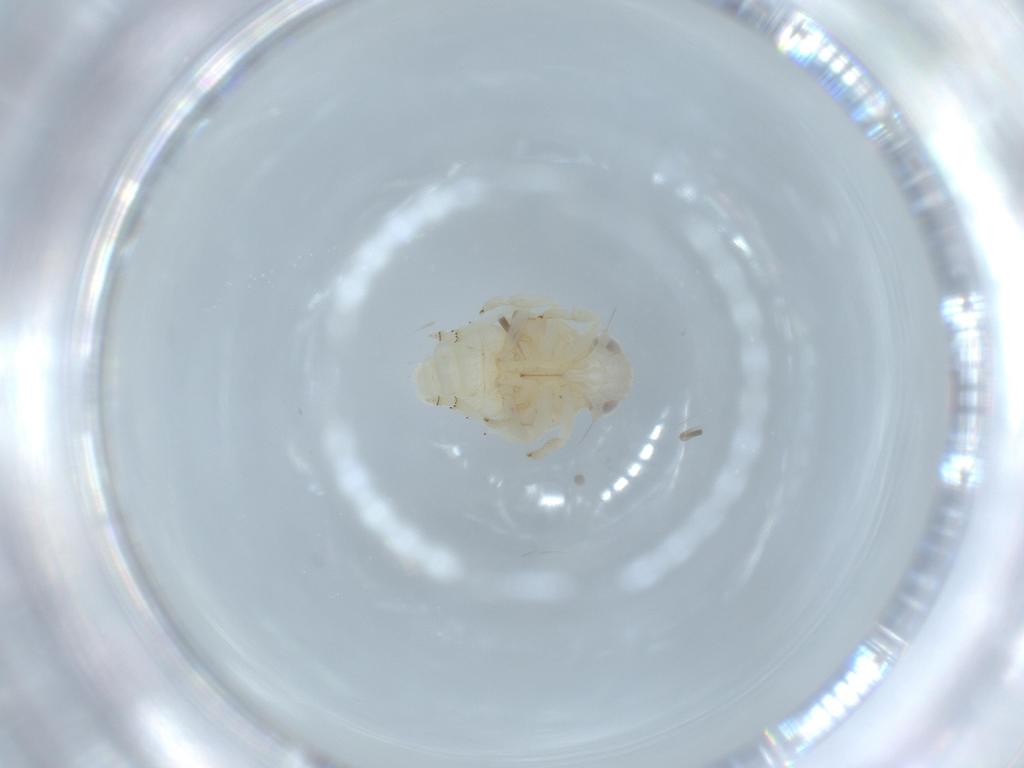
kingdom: Animalia
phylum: Arthropoda
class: Insecta
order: Hemiptera
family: Nogodinidae
